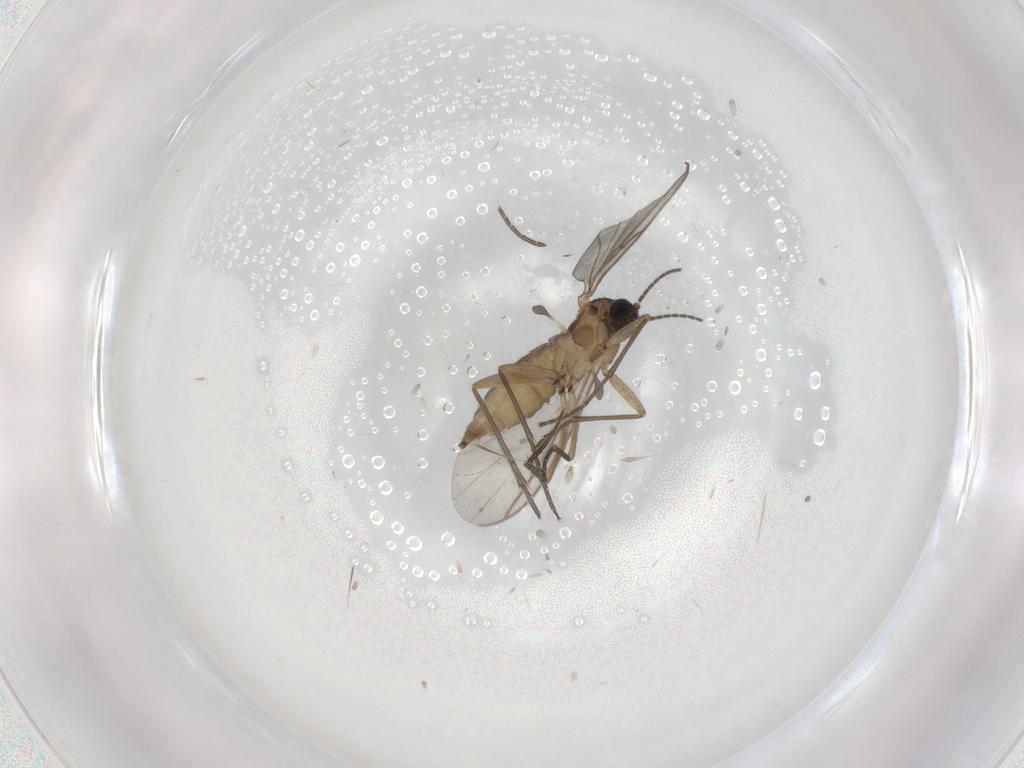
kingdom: Animalia
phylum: Arthropoda
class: Insecta
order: Diptera
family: Sciaridae
